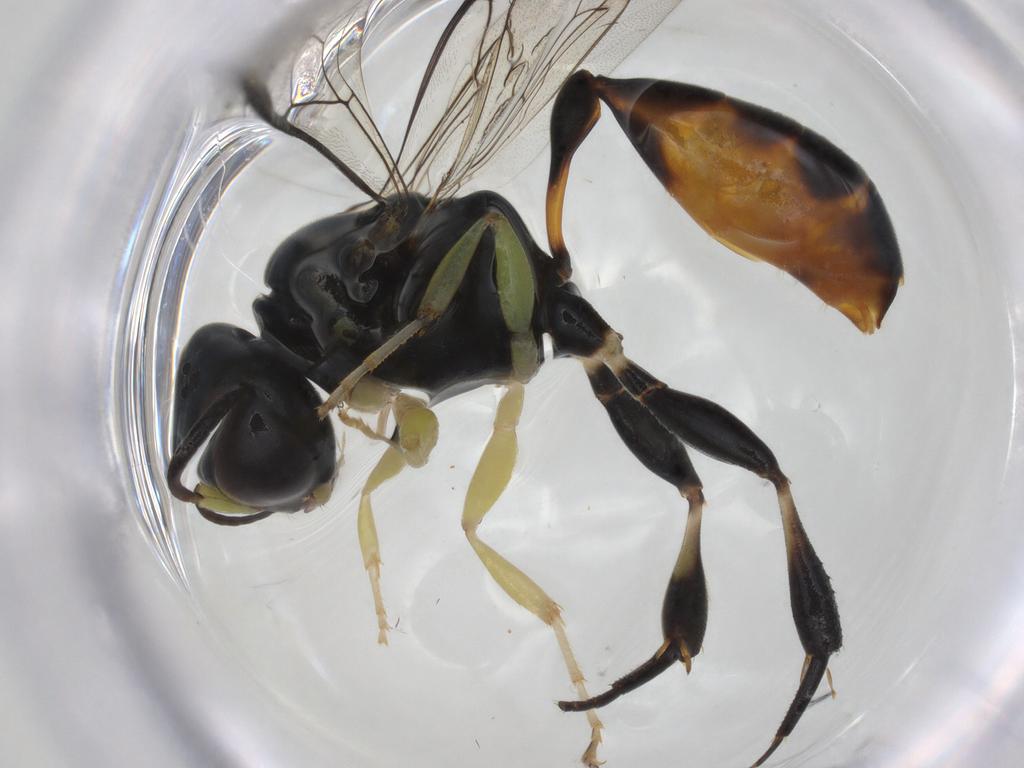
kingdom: Animalia
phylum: Arthropoda
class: Insecta
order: Hymenoptera
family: Crabronidae
